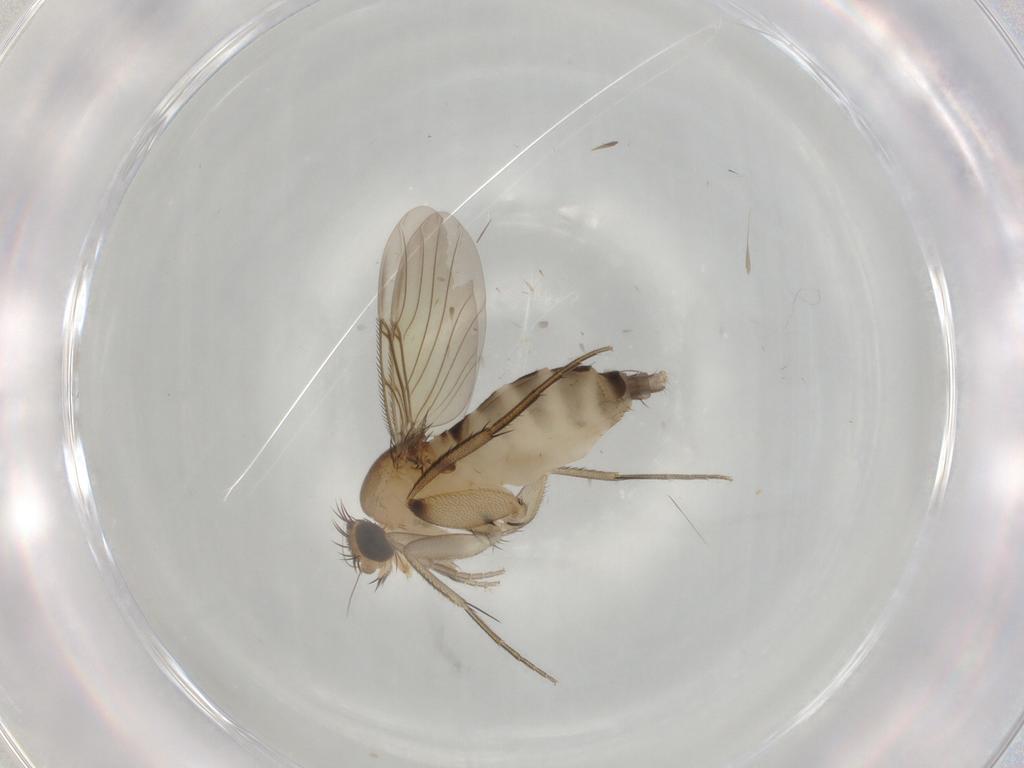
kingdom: Animalia
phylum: Arthropoda
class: Insecta
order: Diptera
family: Phoridae
